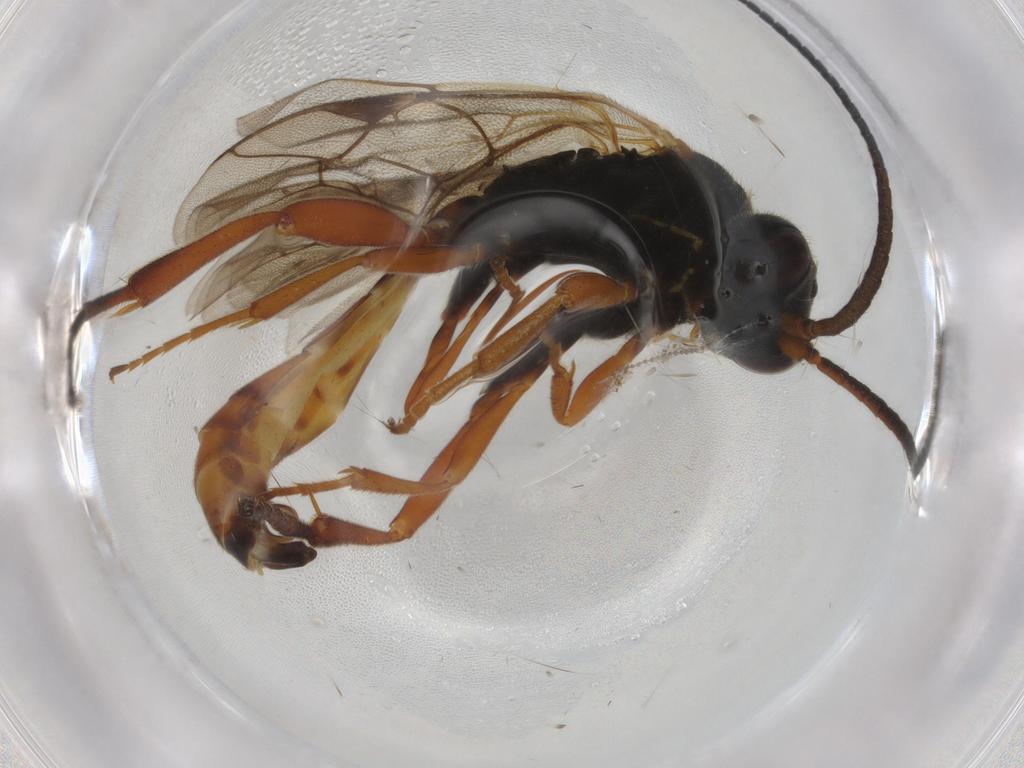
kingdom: Animalia
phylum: Arthropoda
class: Insecta
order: Hymenoptera
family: Ichneumonidae
